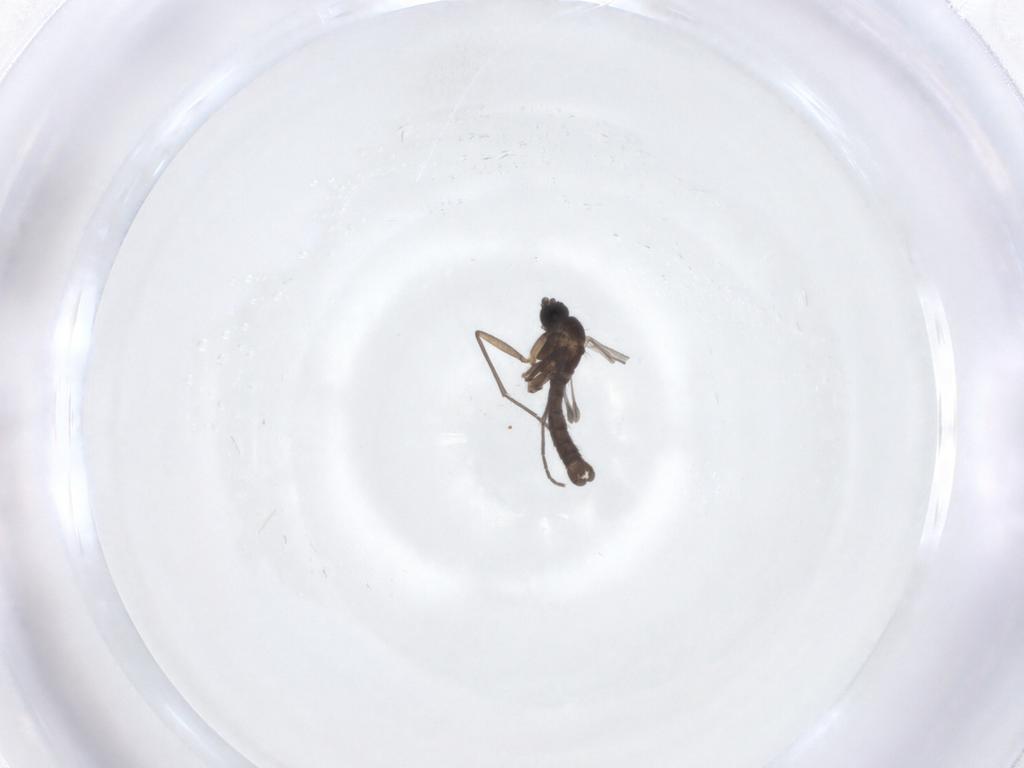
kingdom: Animalia
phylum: Arthropoda
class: Insecta
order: Diptera
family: Sciaridae
